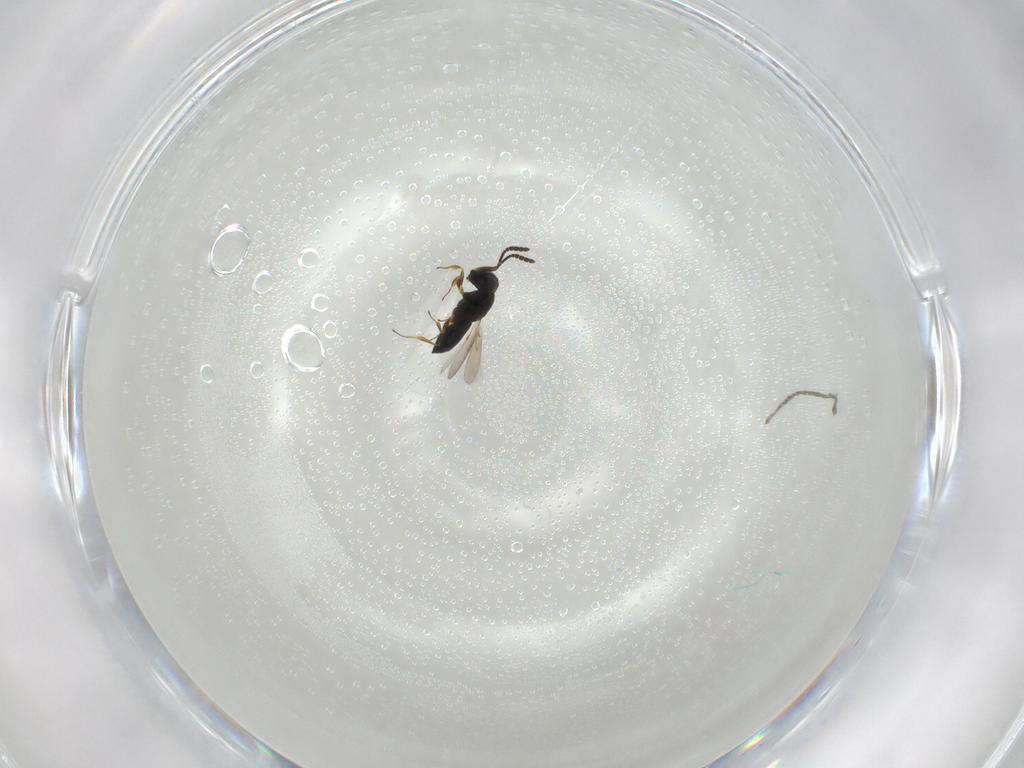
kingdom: Animalia
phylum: Arthropoda
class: Insecta
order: Hymenoptera
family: Scelionidae
